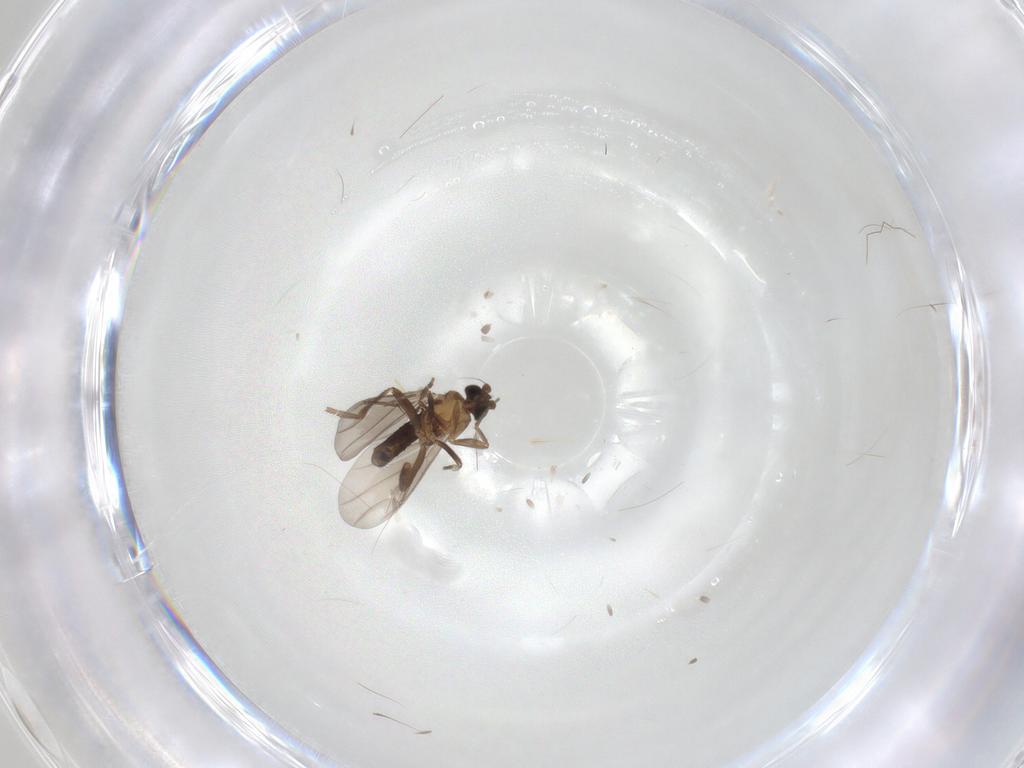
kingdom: Animalia
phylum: Arthropoda
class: Insecta
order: Diptera
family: Phoridae
